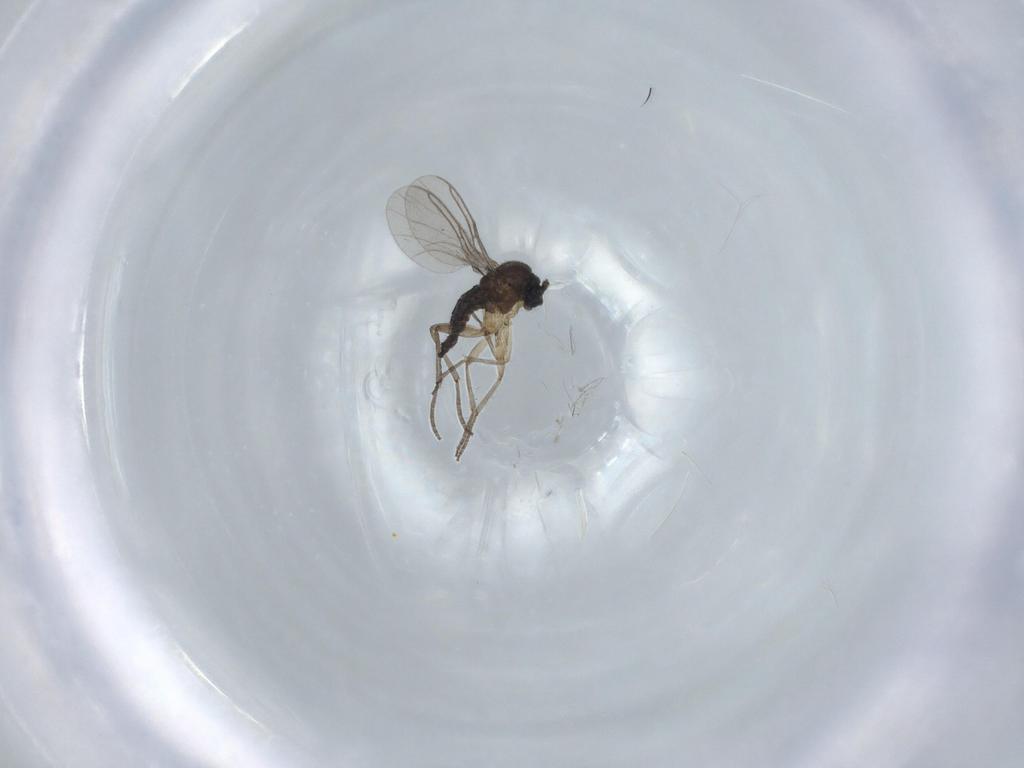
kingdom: Animalia
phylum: Arthropoda
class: Insecta
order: Diptera
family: Sciaridae
